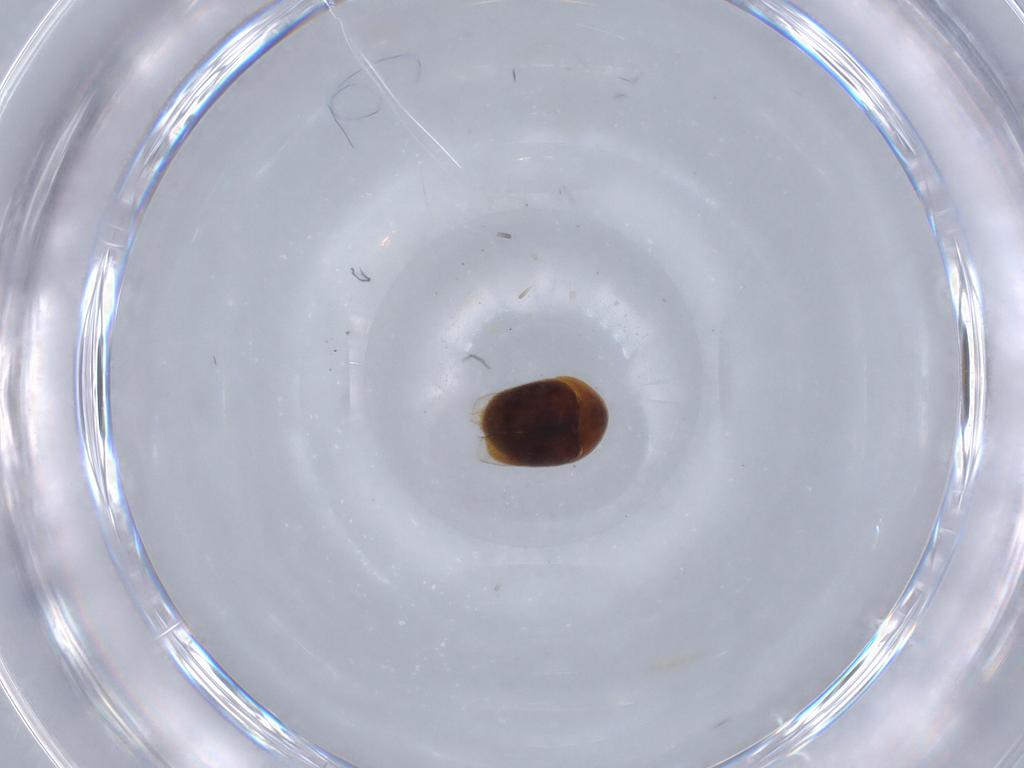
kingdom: Animalia
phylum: Arthropoda
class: Insecta
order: Coleoptera
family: Corylophidae
